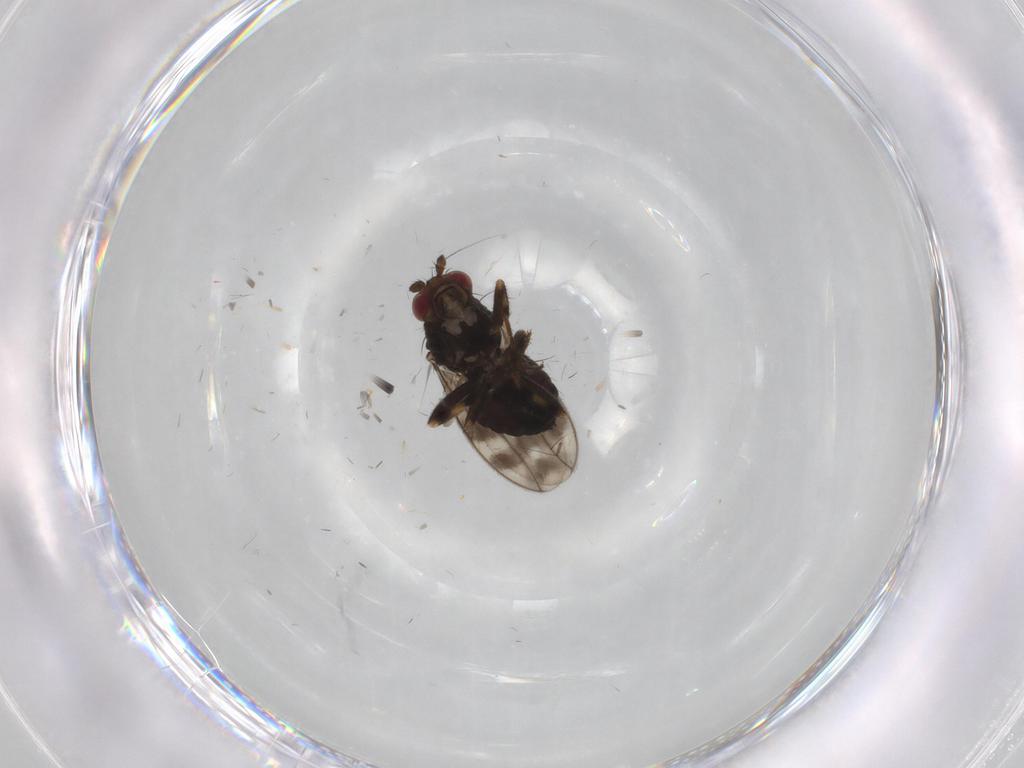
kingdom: Animalia
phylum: Arthropoda
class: Insecta
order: Diptera
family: Sphaeroceridae
